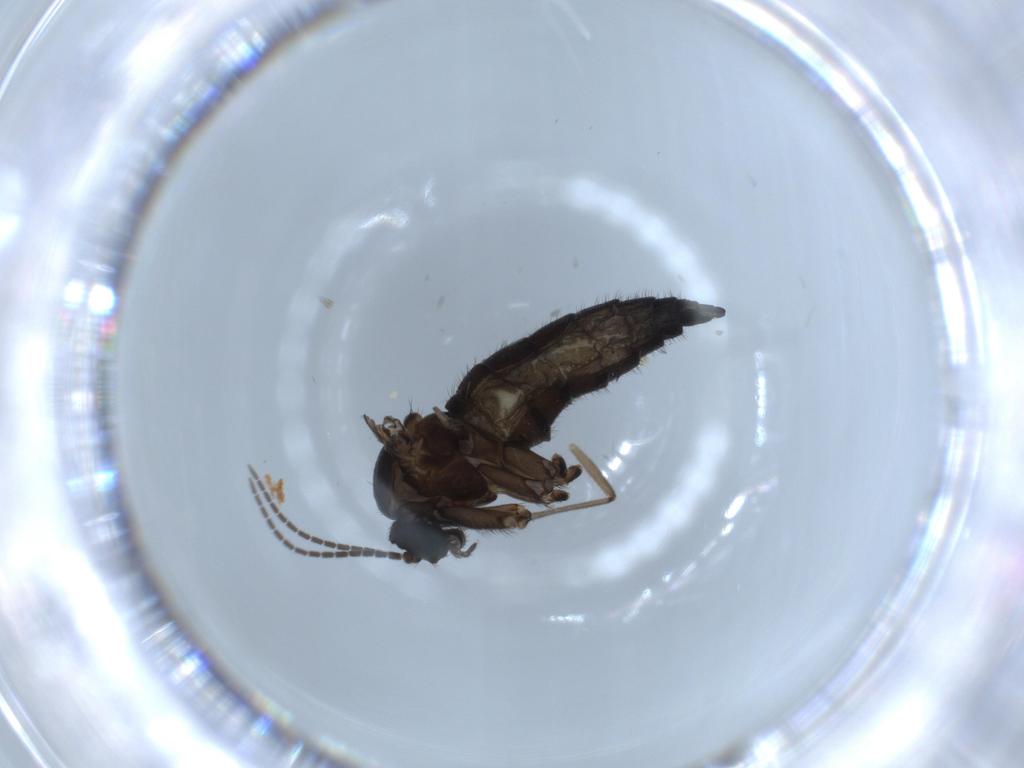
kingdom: Animalia
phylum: Arthropoda
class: Insecta
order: Diptera
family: Cecidomyiidae
